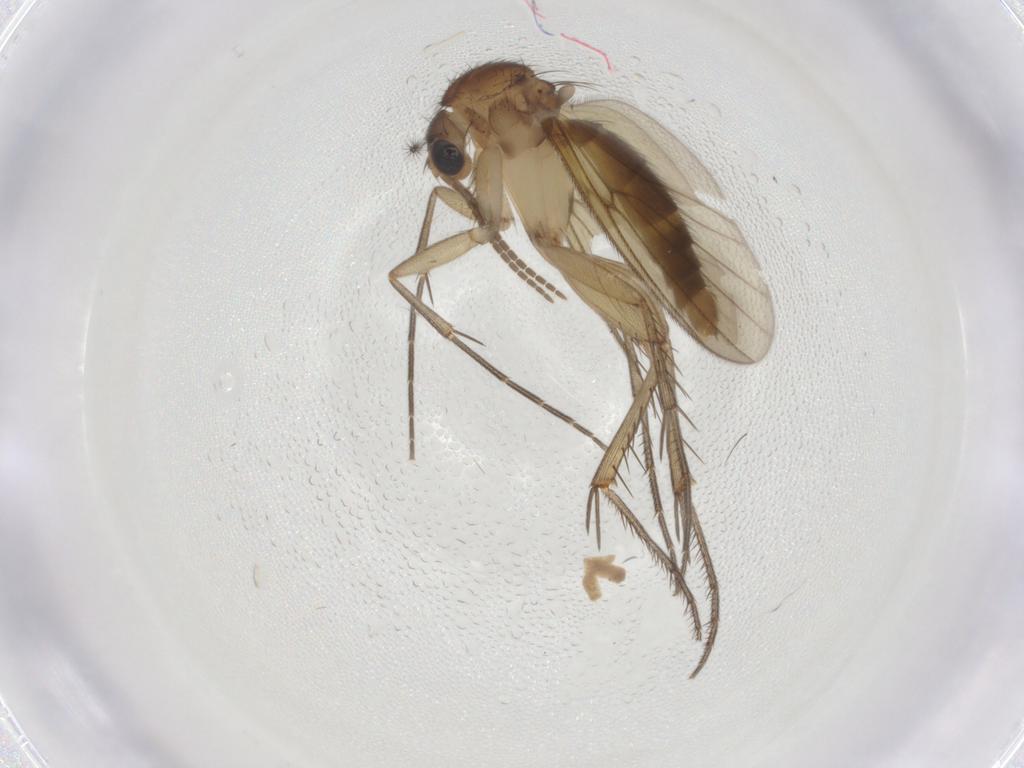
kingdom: Animalia
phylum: Arthropoda
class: Insecta
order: Diptera
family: Mycetophilidae
